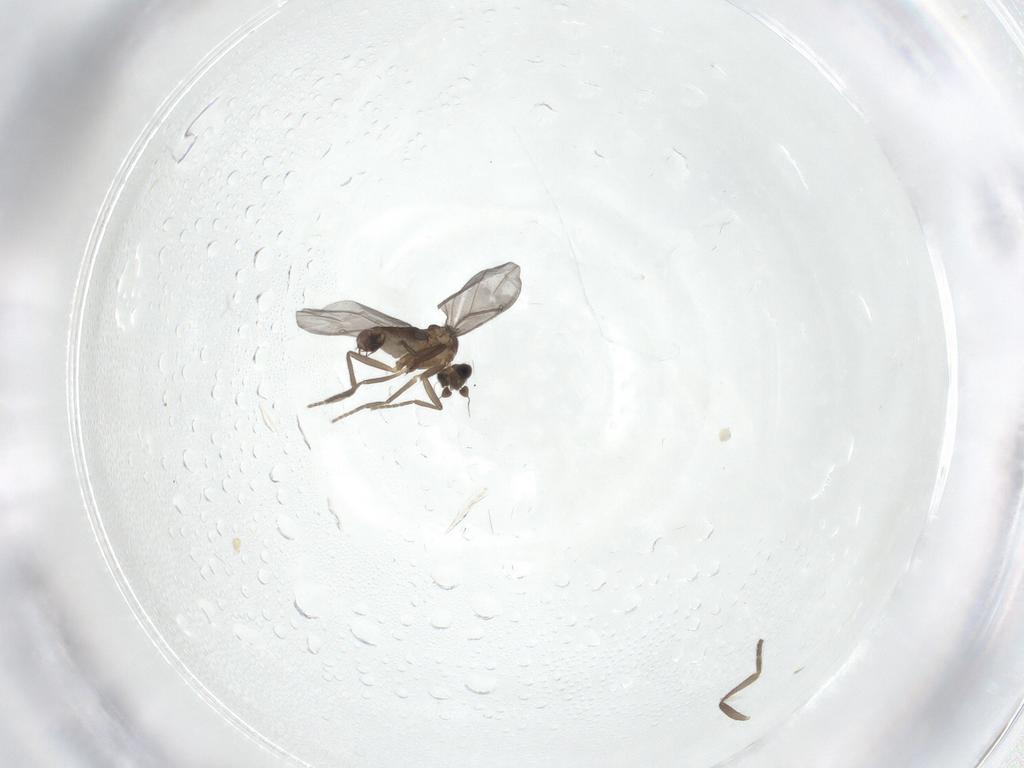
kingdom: Animalia
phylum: Arthropoda
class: Insecta
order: Diptera
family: Phoridae
